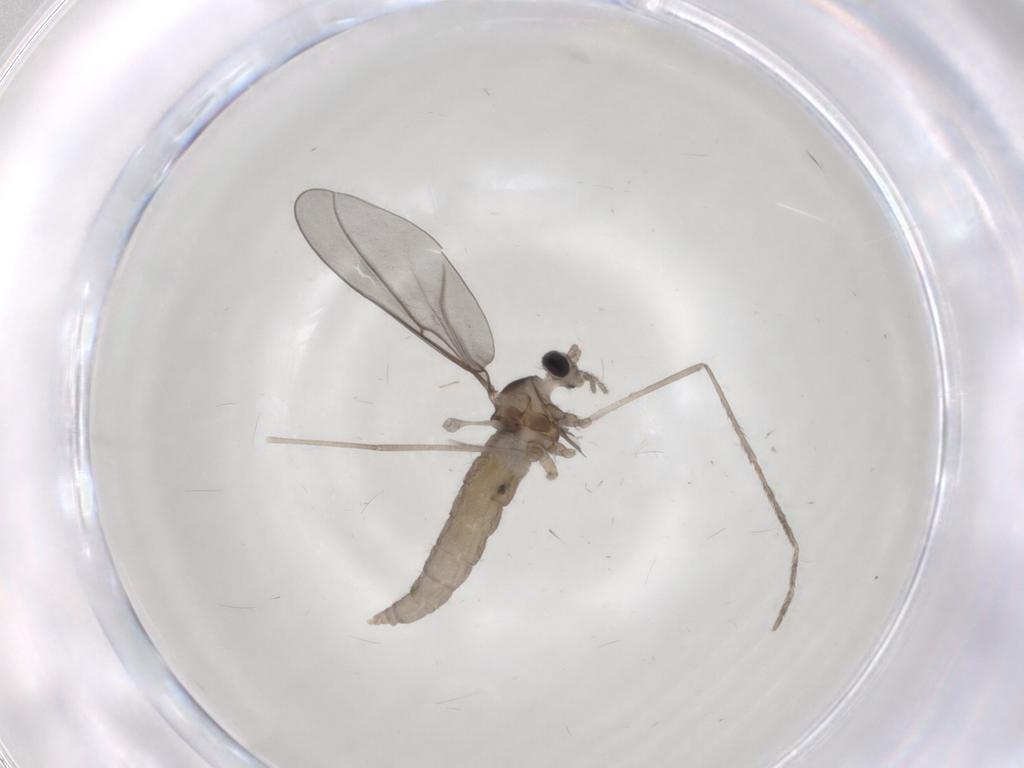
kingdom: Animalia
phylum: Arthropoda
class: Insecta
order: Diptera
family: Cecidomyiidae
